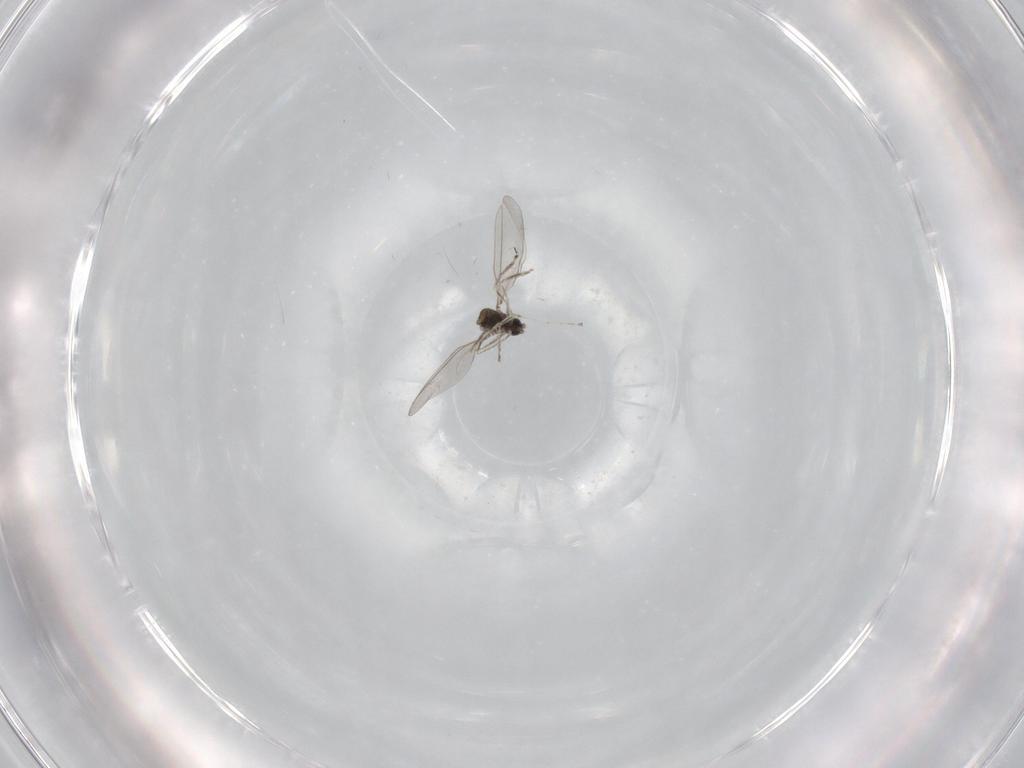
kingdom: Animalia
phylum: Arthropoda
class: Insecta
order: Diptera
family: Cecidomyiidae
